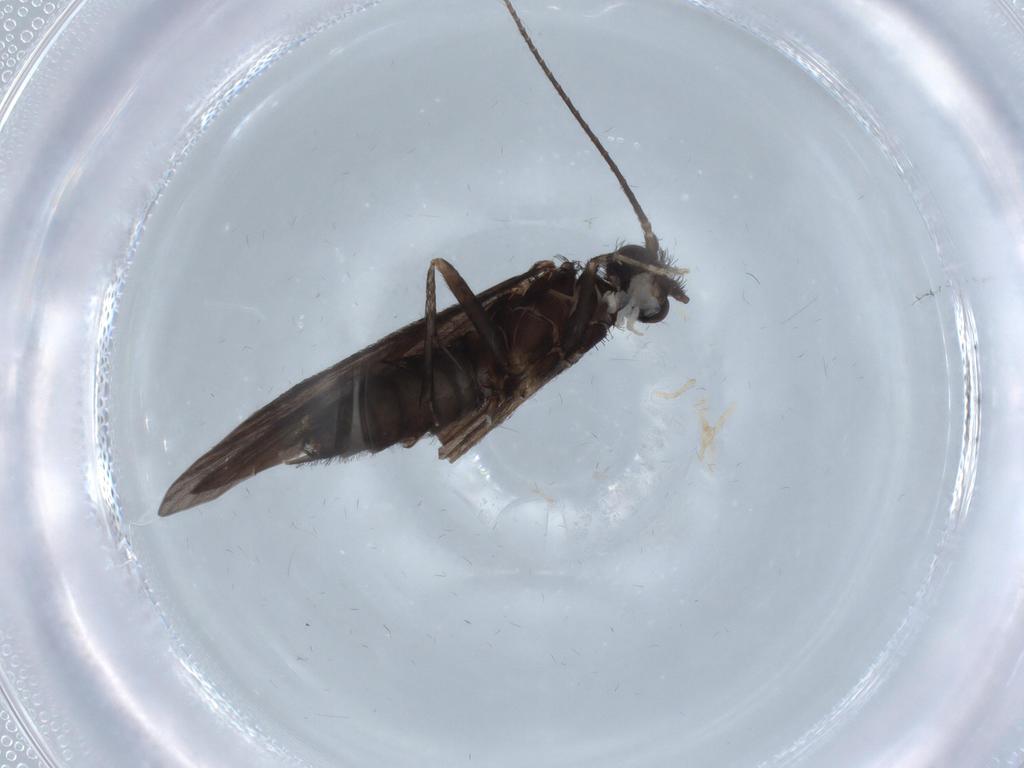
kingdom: Animalia
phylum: Arthropoda
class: Insecta
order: Trichoptera
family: Xiphocentronidae
